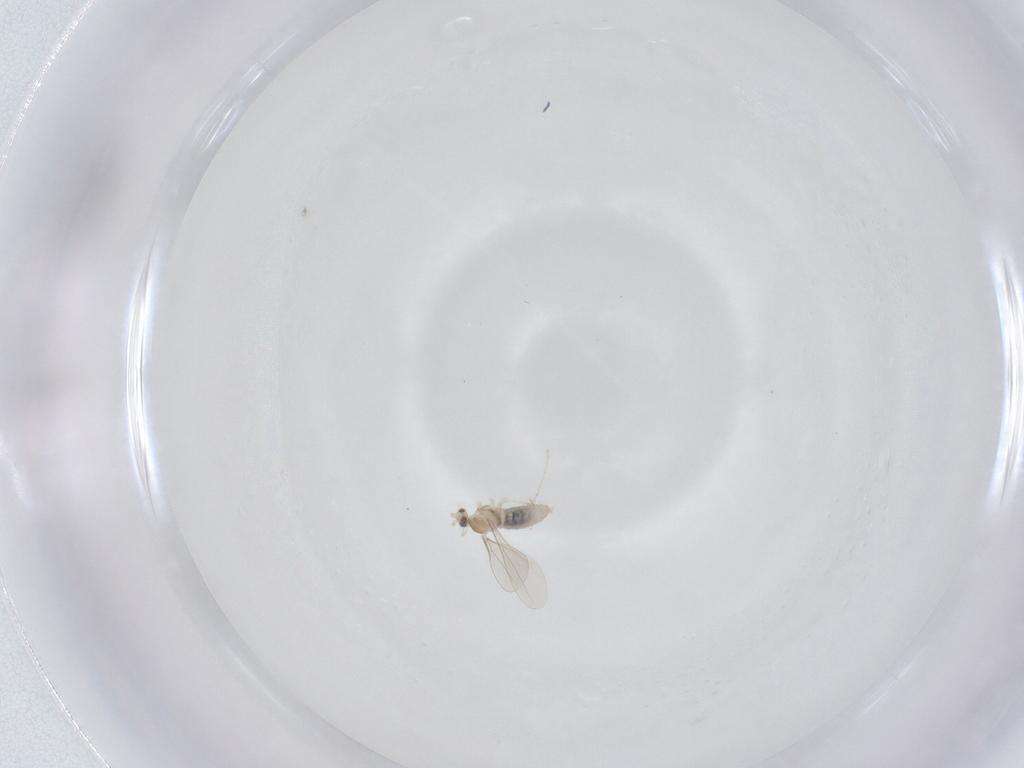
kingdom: Animalia
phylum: Arthropoda
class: Insecta
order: Diptera
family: Cecidomyiidae
